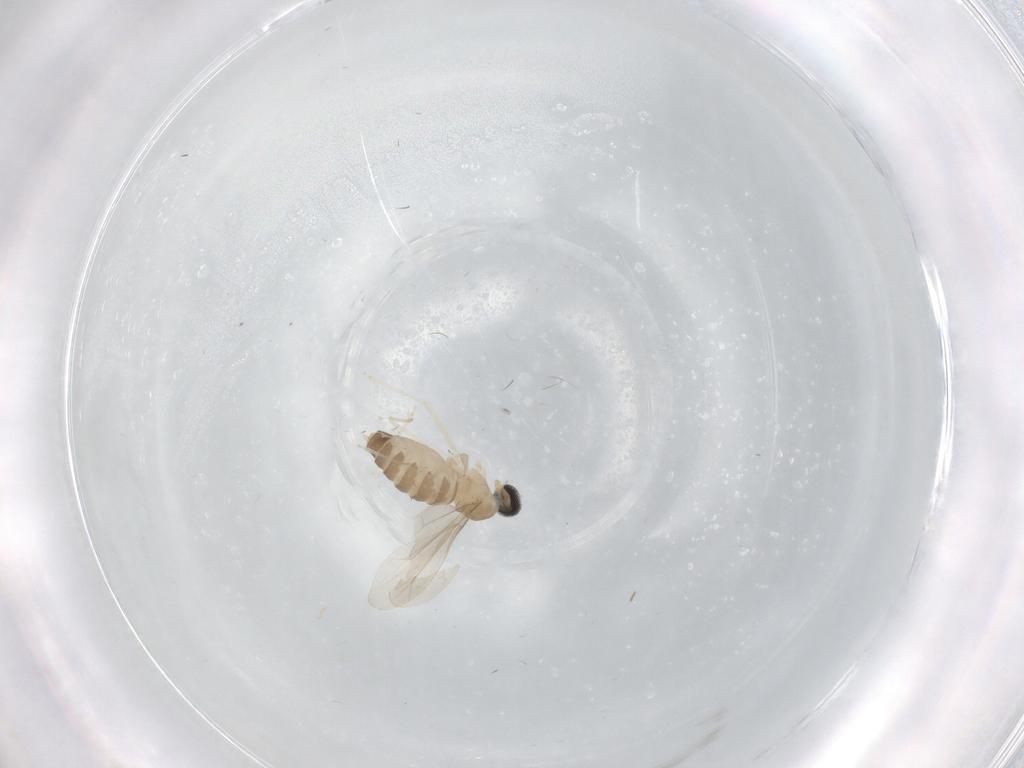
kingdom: Animalia
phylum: Arthropoda
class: Insecta
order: Diptera
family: Cecidomyiidae
